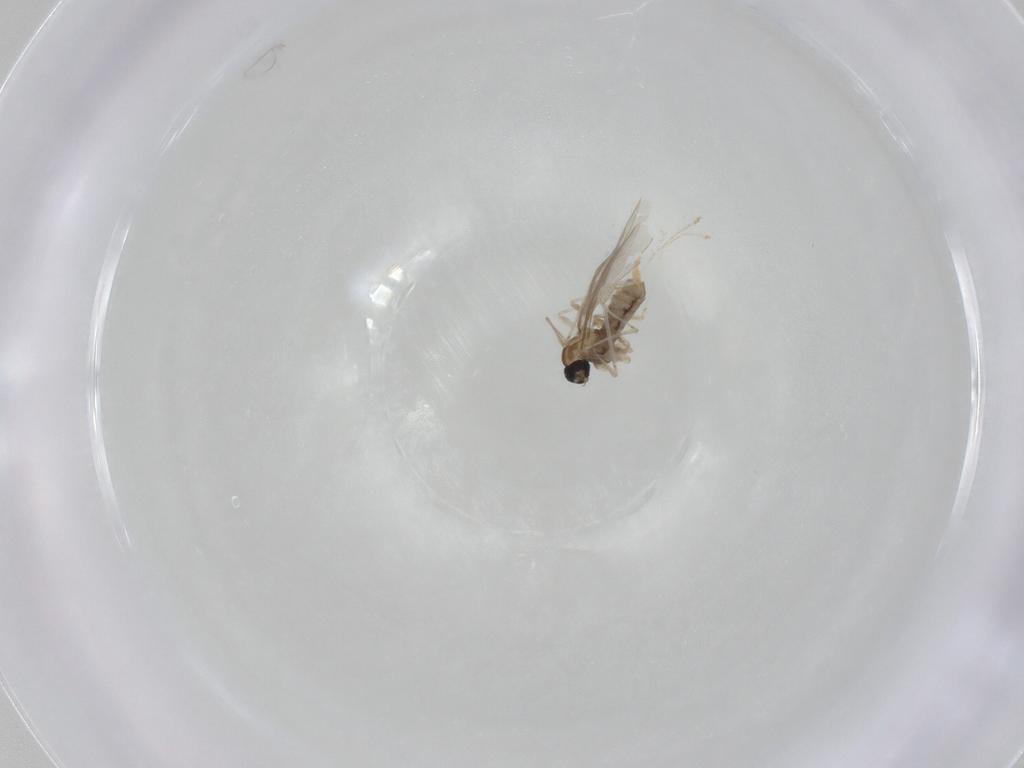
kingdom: Animalia
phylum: Arthropoda
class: Insecta
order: Diptera
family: Cecidomyiidae
